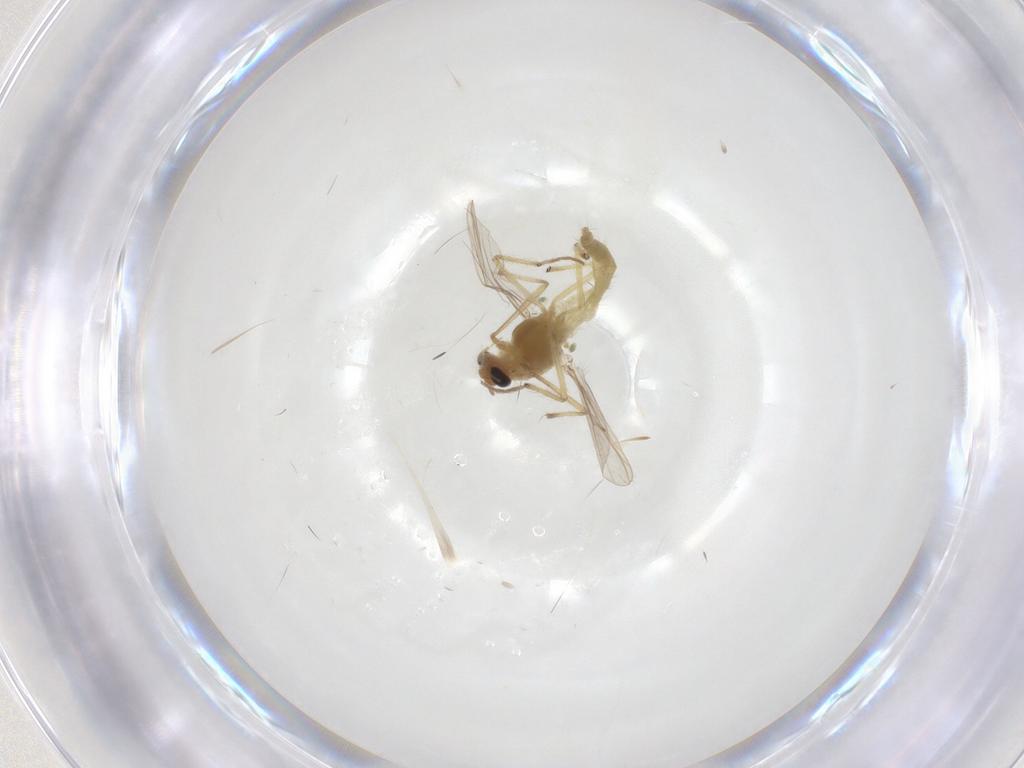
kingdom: Animalia
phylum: Arthropoda
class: Insecta
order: Diptera
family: Chironomidae
